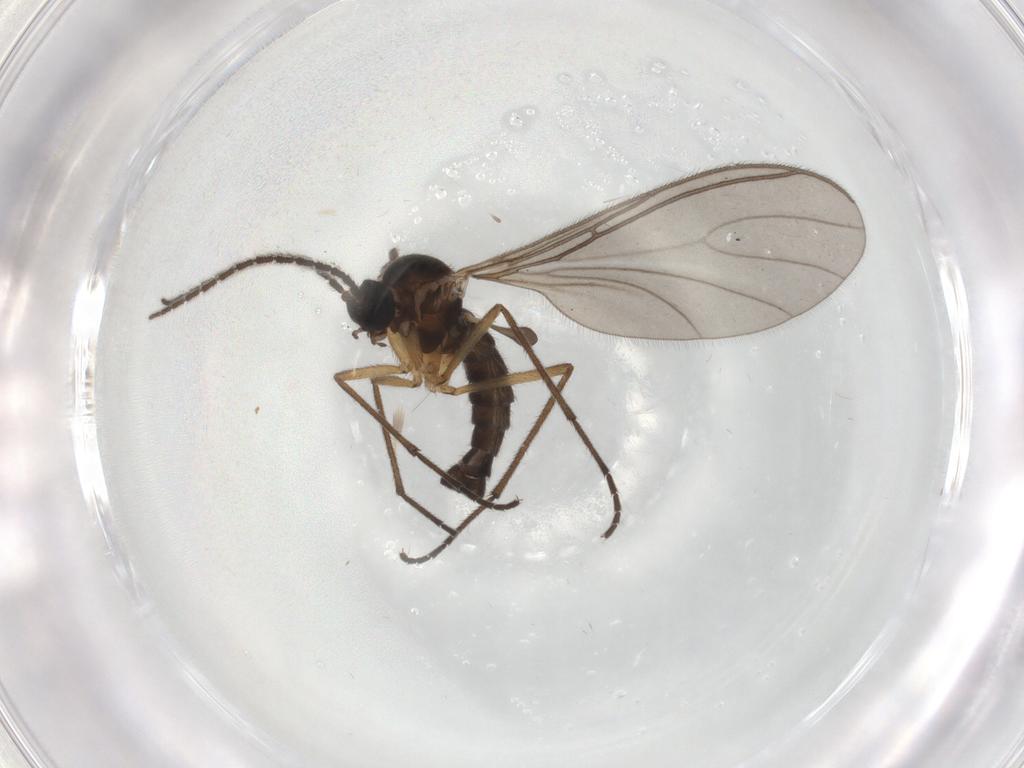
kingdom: Animalia
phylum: Arthropoda
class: Insecta
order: Diptera
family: Sciaridae
